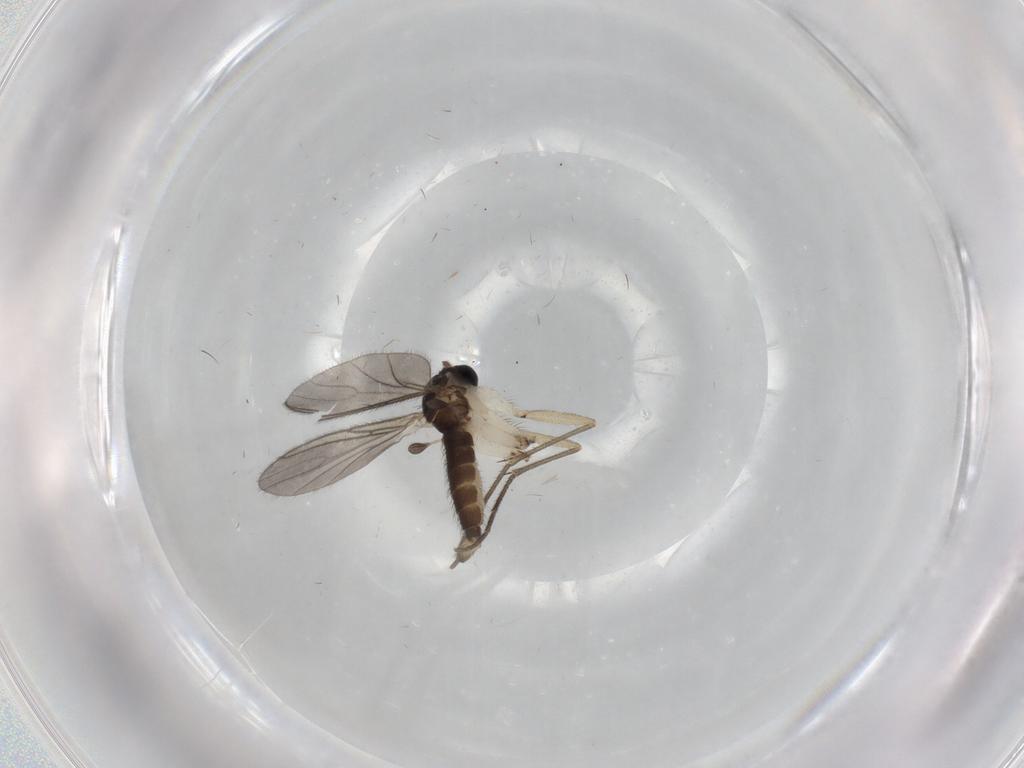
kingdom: Animalia
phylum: Arthropoda
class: Insecta
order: Diptera
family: Sciaridae
